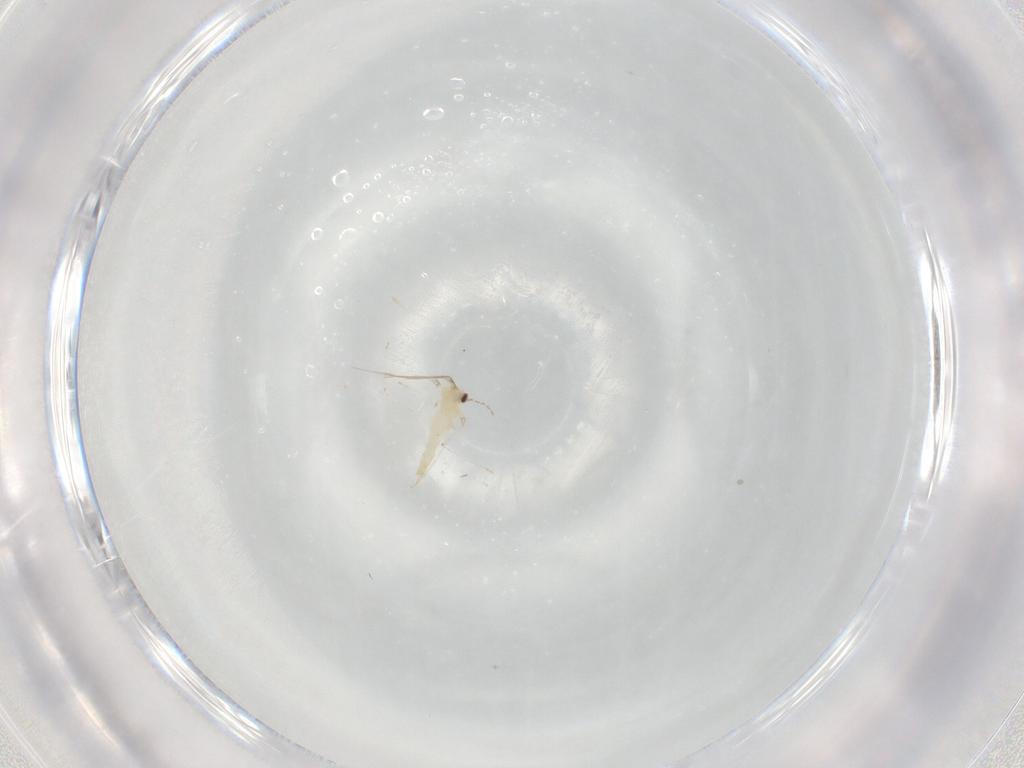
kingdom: Animalia
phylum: Arthropoda
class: Insecta
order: Diptera
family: Cecidomyiidae
